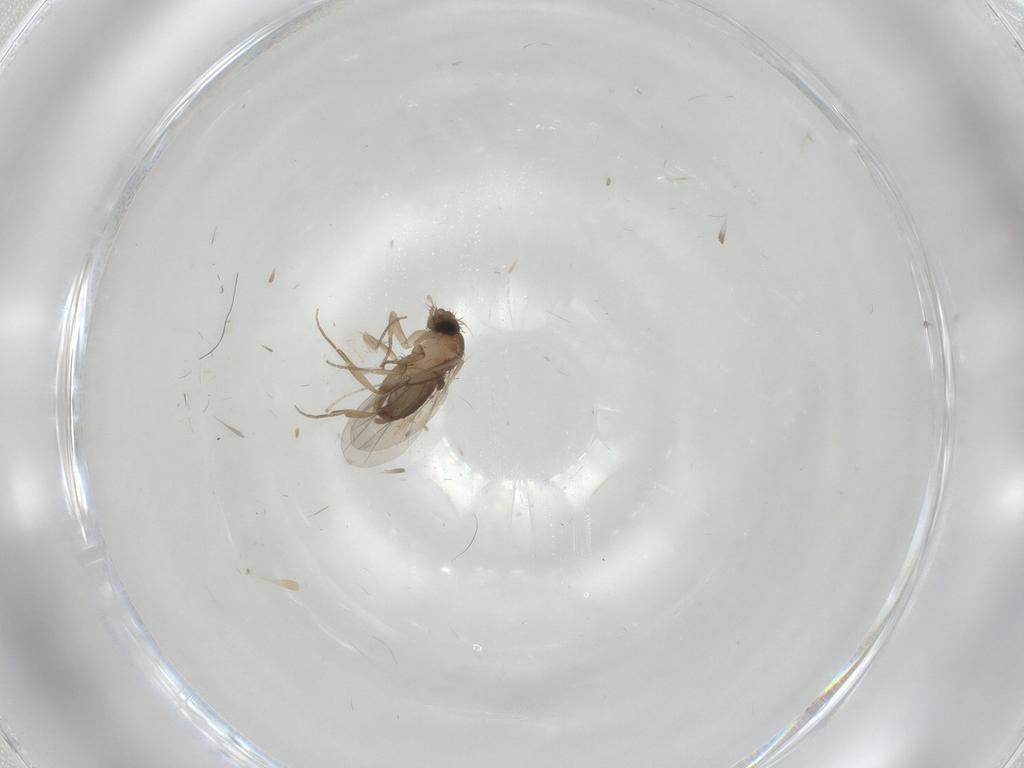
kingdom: Animalia
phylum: Arthropoda
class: Insecta
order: Diptera
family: Phoridae
